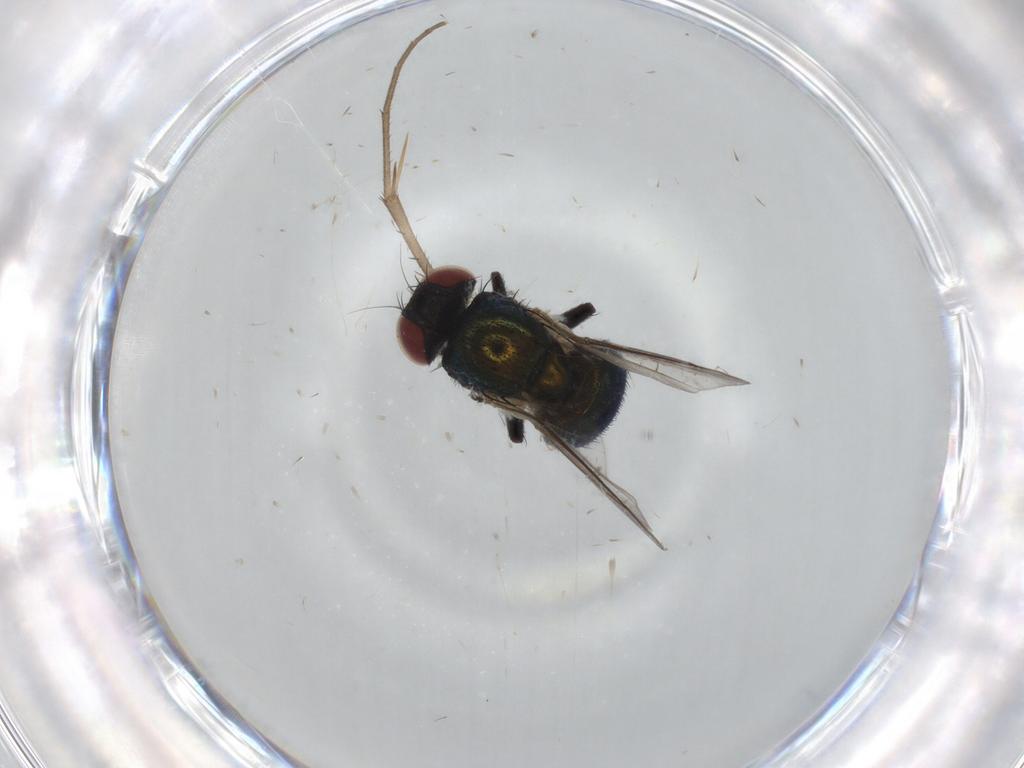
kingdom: Animalia
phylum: Arthropoda
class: Insecta
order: Diptera
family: Agromyzidae
